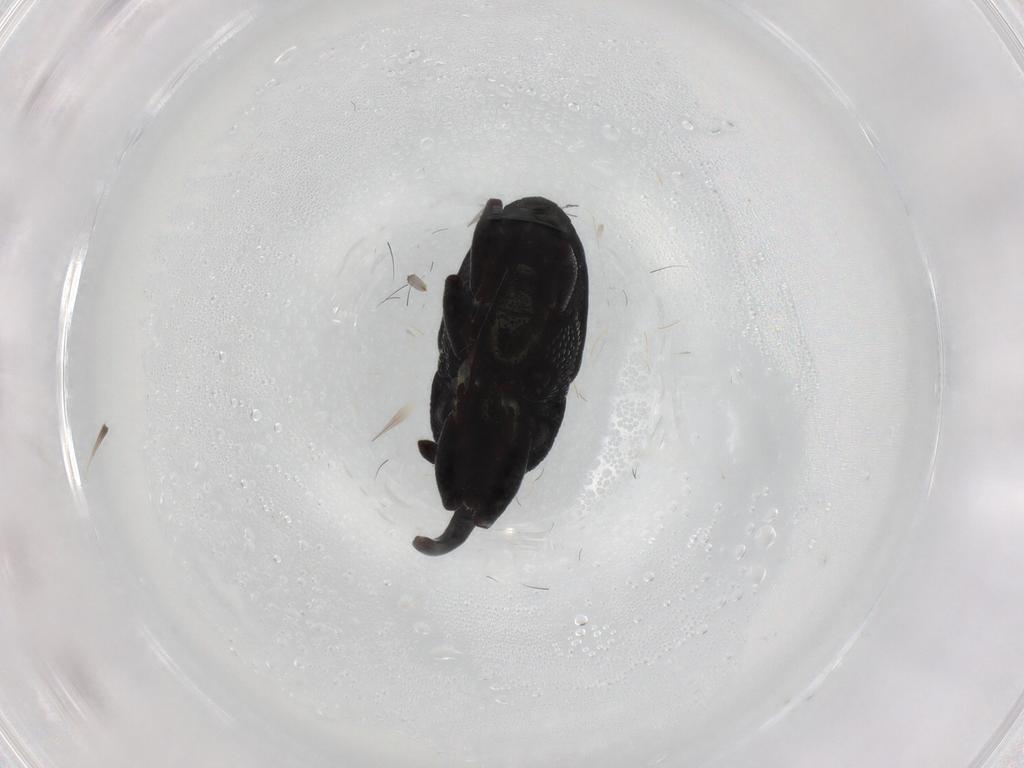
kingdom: Animalia
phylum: Arthropoda
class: Insecta
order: Coleoptera
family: Curculionidae
